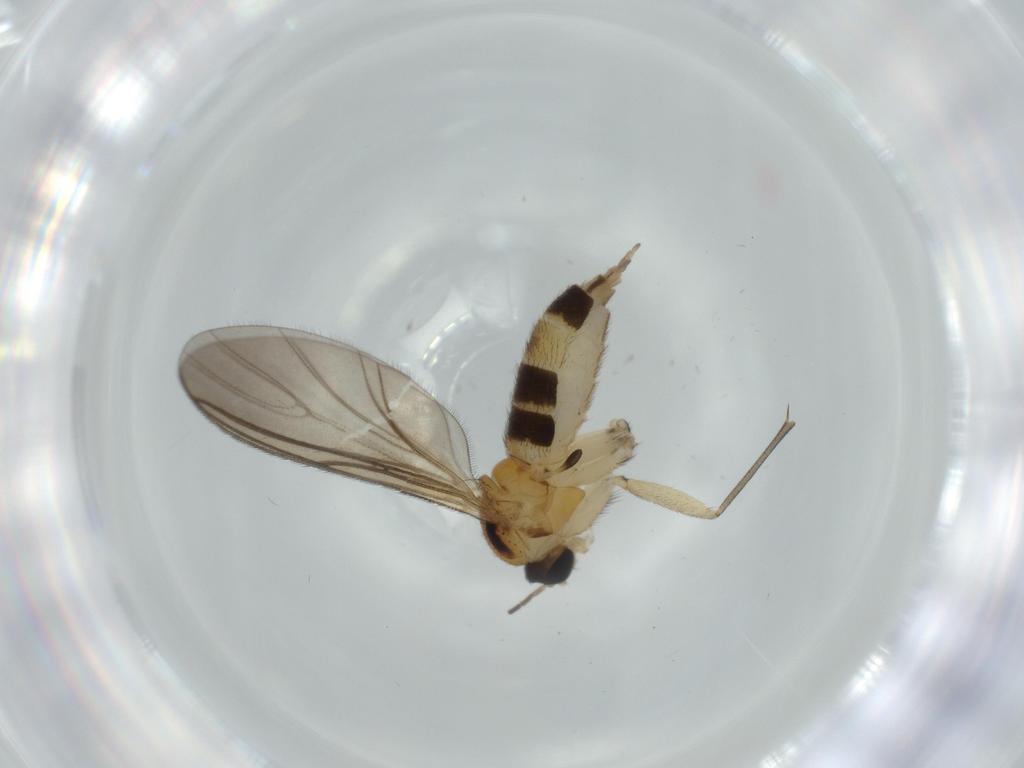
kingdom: Animalia
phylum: Arthropoda
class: Insecta
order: Diptera
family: Sciaridae
